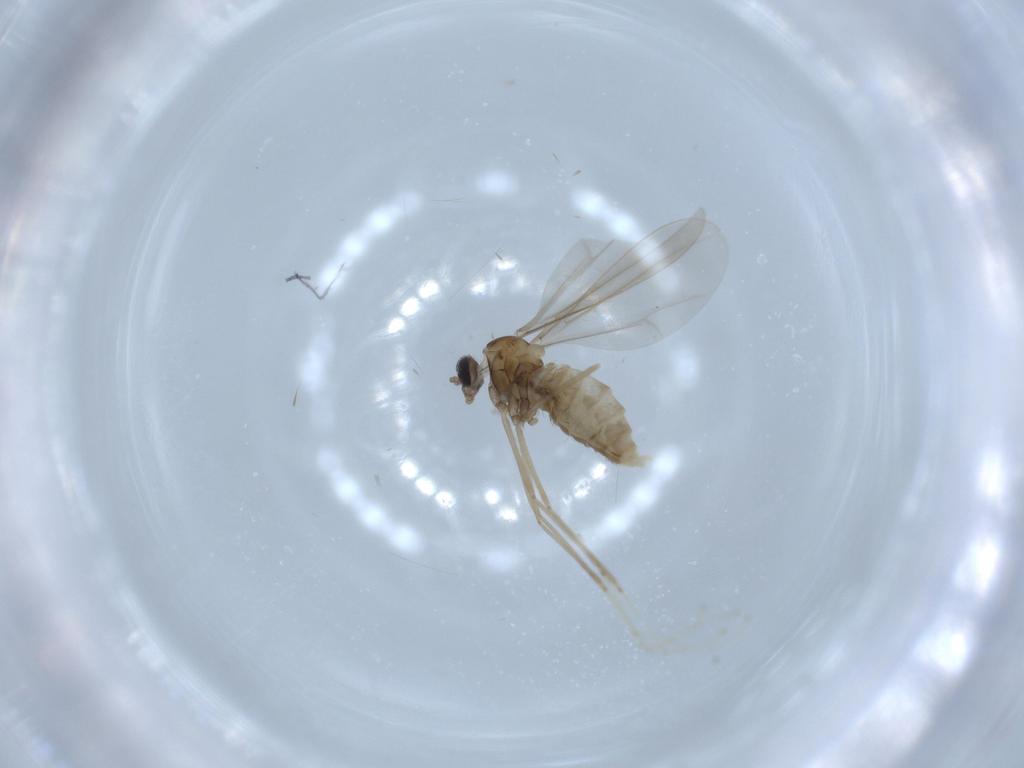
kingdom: Animalia
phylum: Arthropoda
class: Insecta
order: Diptera
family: Cecidomyiidae
